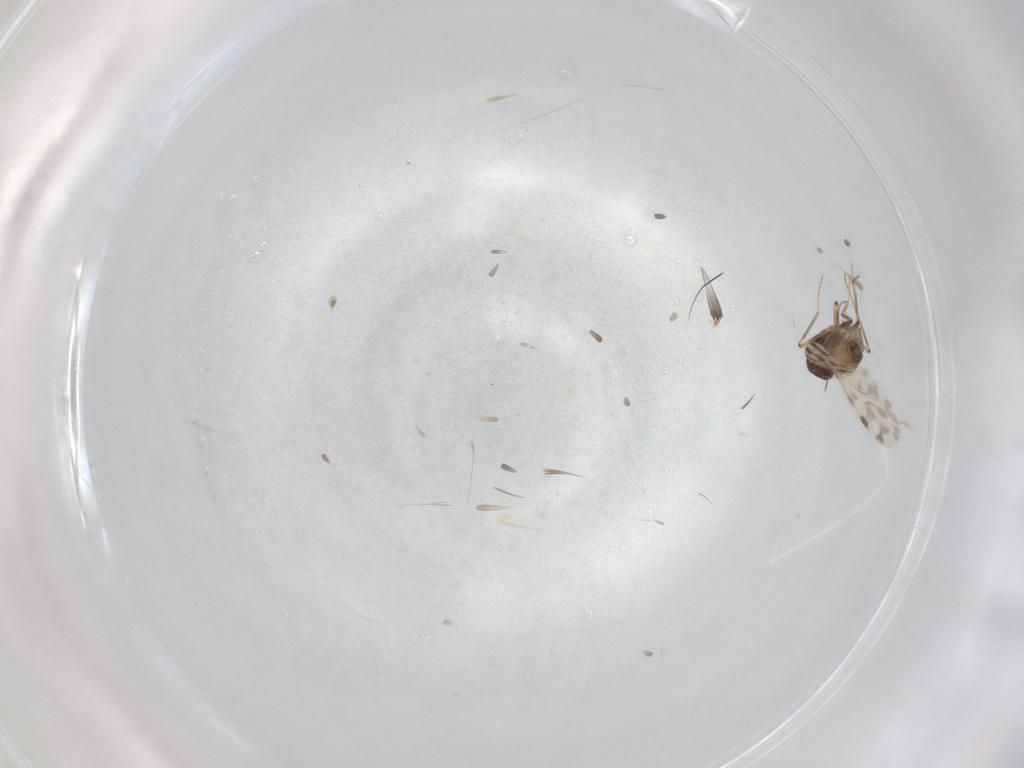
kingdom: Animalia
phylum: Arthropoda
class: Insecta
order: Diptera
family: Ceratopogonidae
